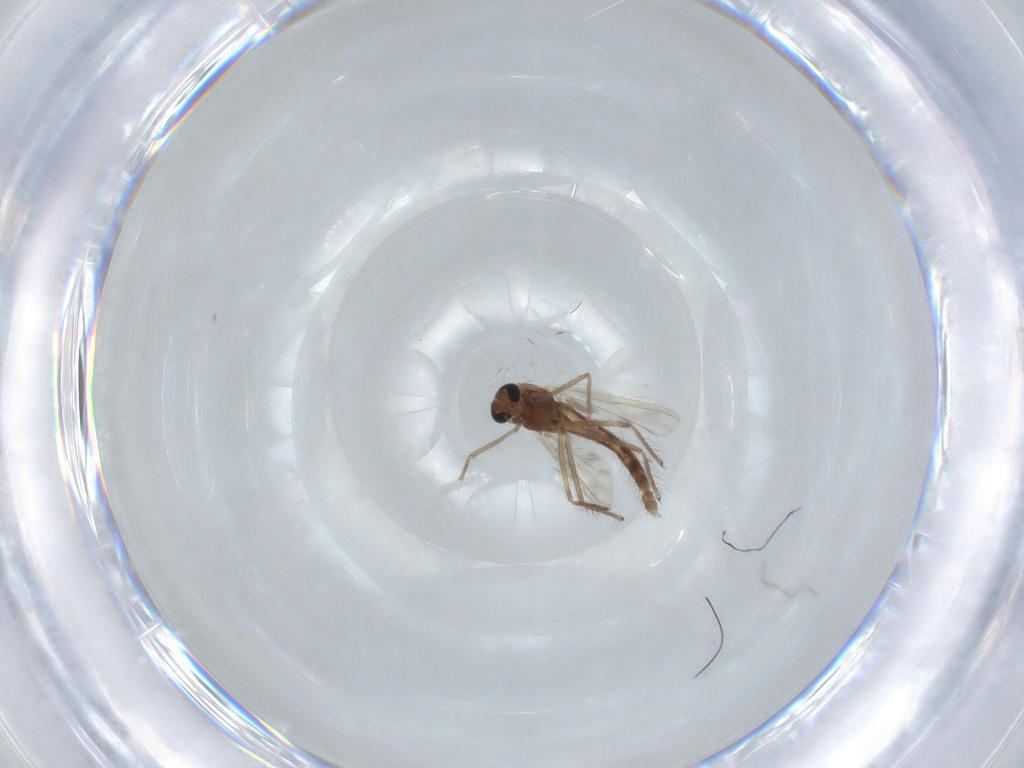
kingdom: Animalia
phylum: Arthropoda
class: Insecta
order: Diptera
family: Chironomidae
